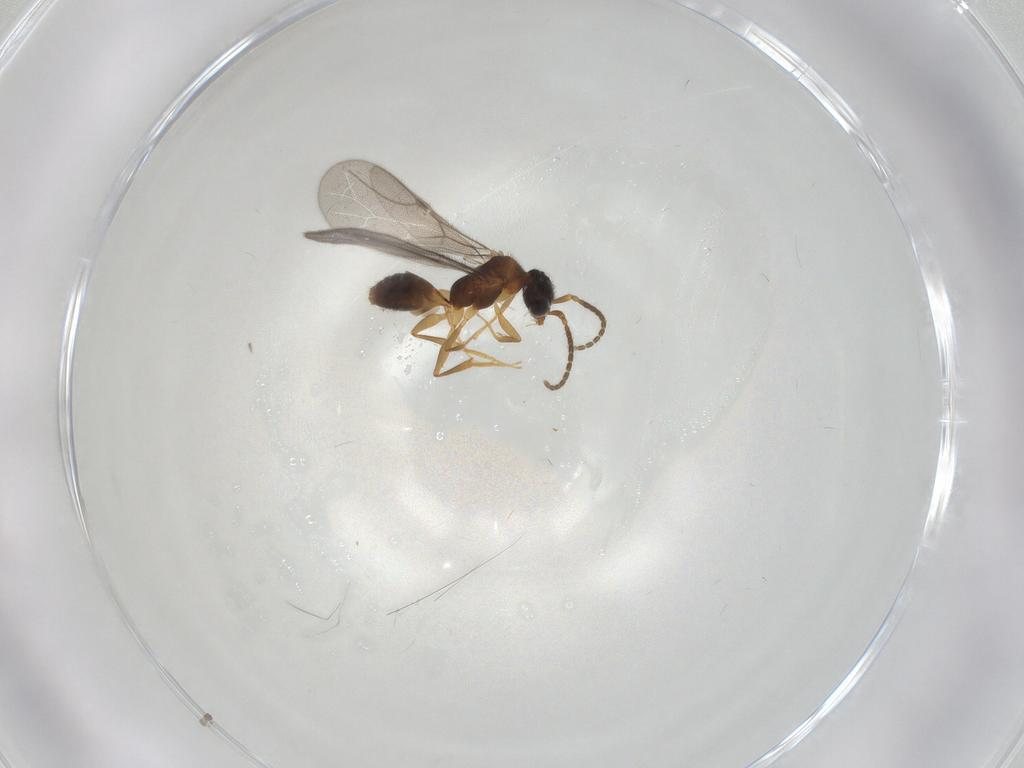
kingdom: Animalia
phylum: Arthropoda
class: Insecta
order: Hymenoptera
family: Bethylidae
